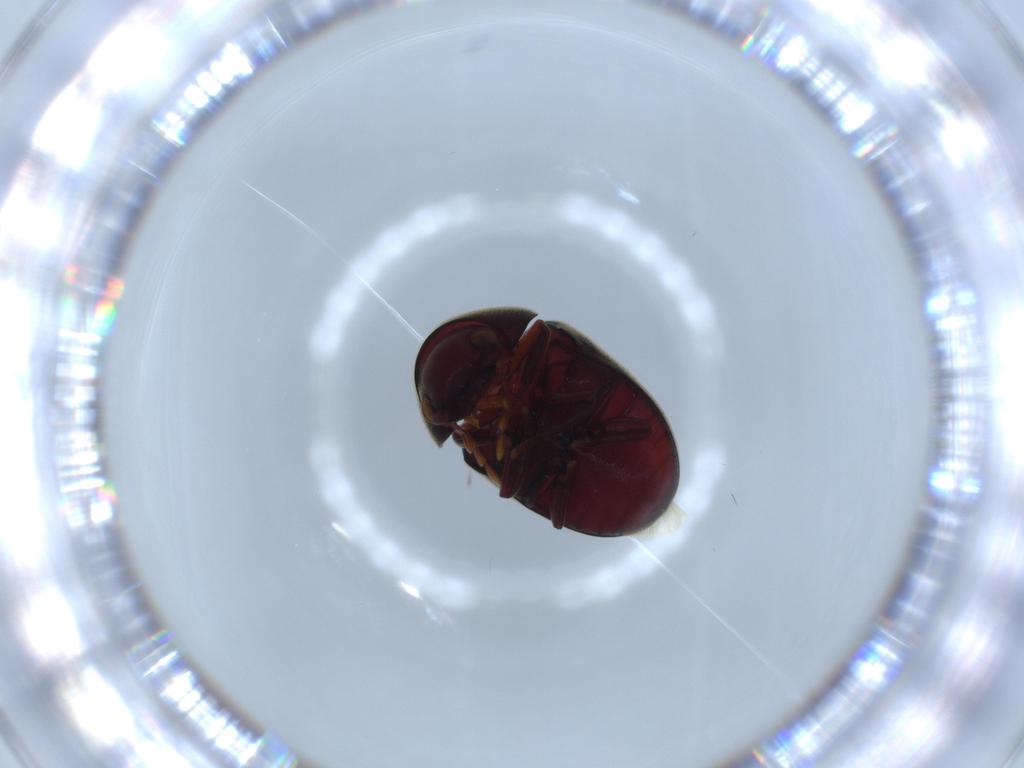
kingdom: Animalia
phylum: Arthropoda
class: Insecta
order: Coleoptera
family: Ptinidae
